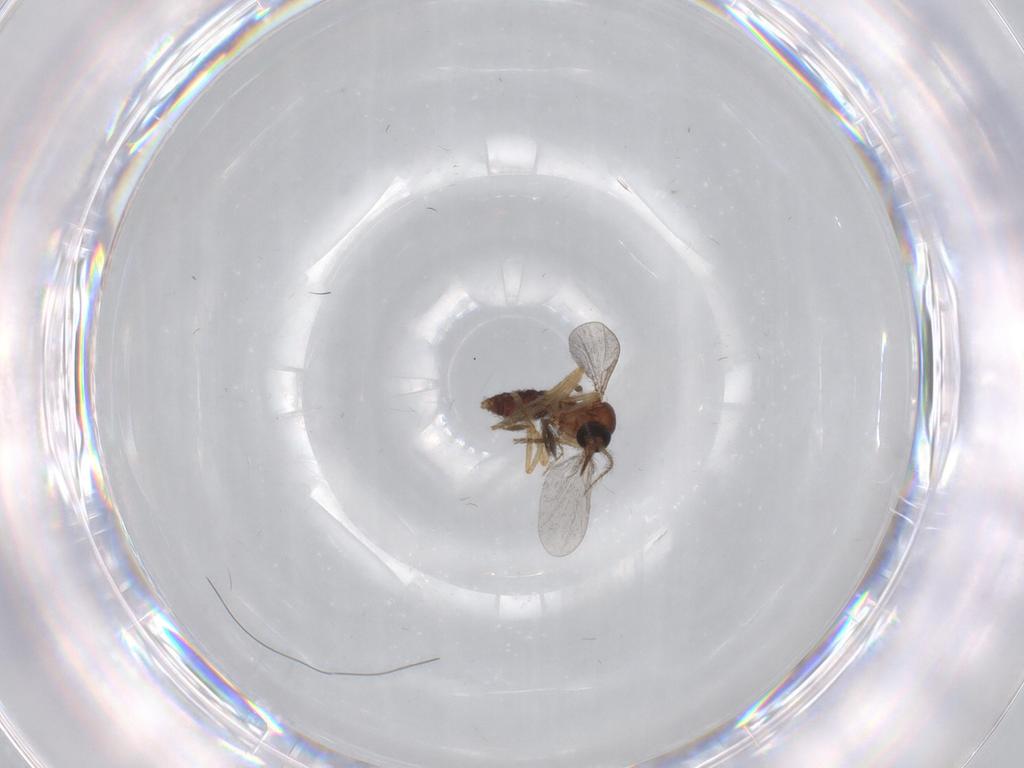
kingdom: Animalia
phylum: Arthropoda
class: Insecta
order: Diptera
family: Ceratopogonidae
